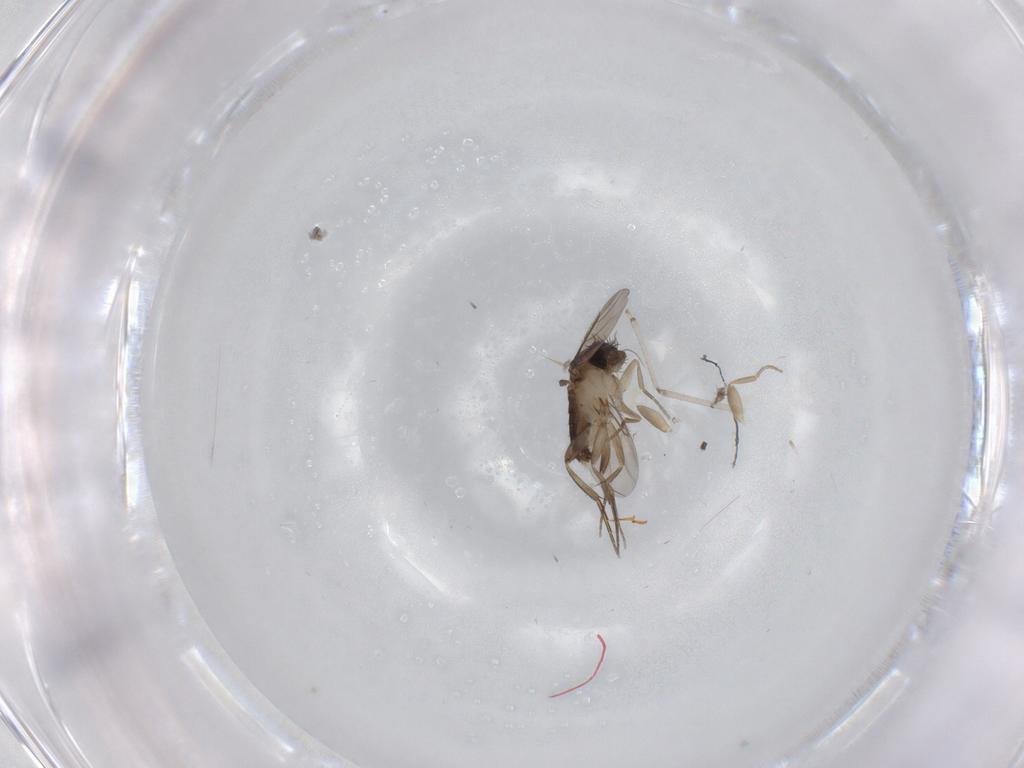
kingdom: Animalia
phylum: Arthropoda
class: Insecta
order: Diptera
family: Phoridae
